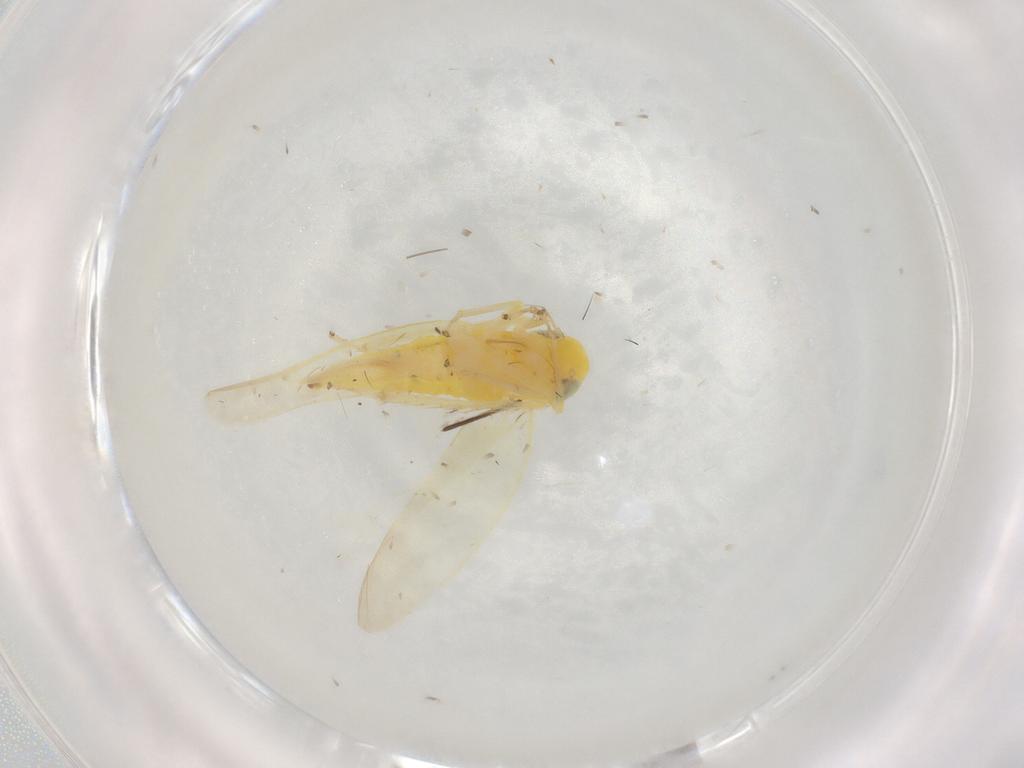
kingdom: Animalia
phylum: Arthropoda
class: Insecta
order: Hemiptera
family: Cicadellidae
